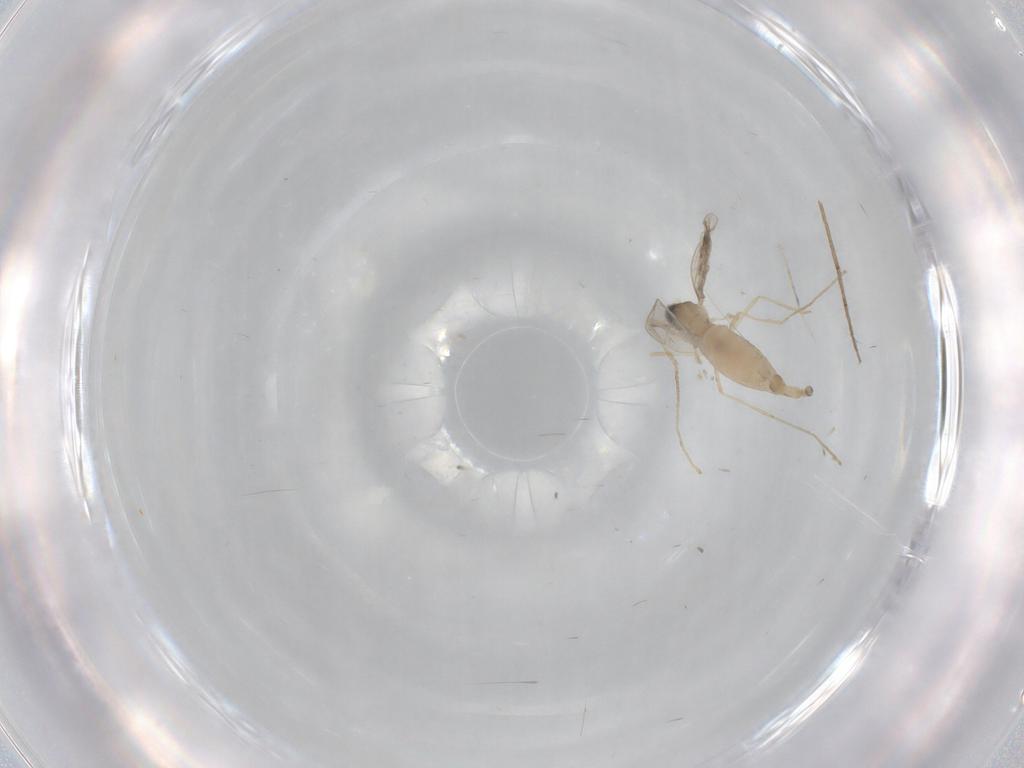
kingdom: Animalia
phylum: Arthropoda
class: Insecta
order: Diptera
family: Cecidomyiidae
